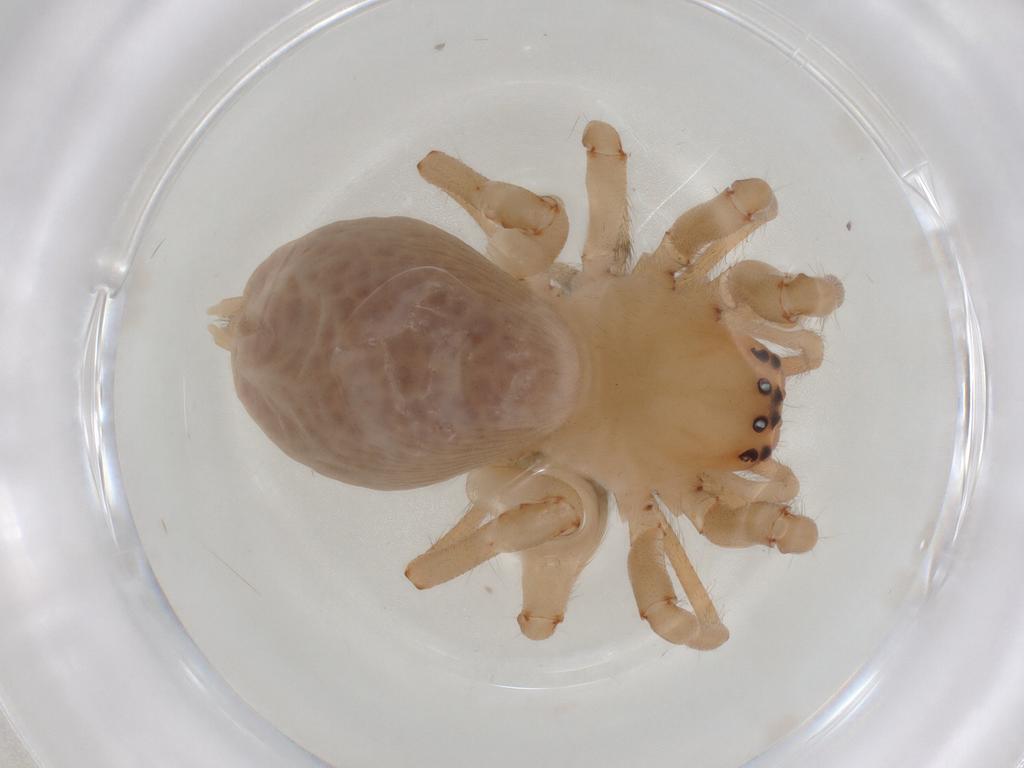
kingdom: Animalia
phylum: Arthropoda
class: Arachnida
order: Araneae
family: Miturgidae
